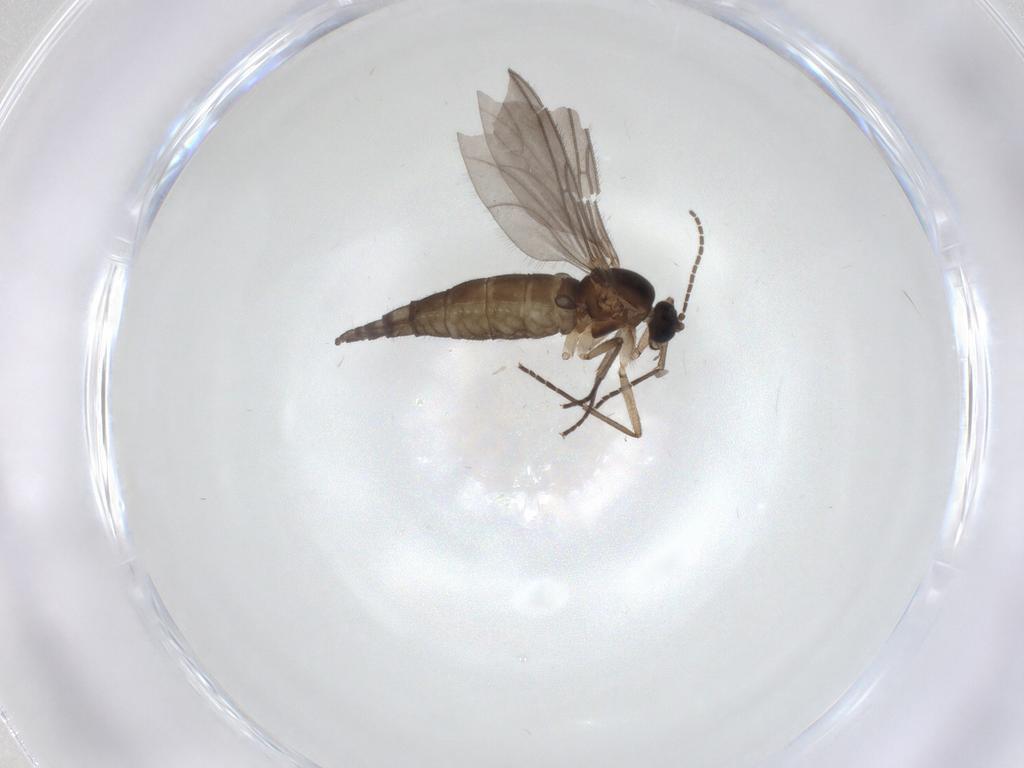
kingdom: Animalia
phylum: Arthropoda
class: Insecta
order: Diptera
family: Sciaridae
